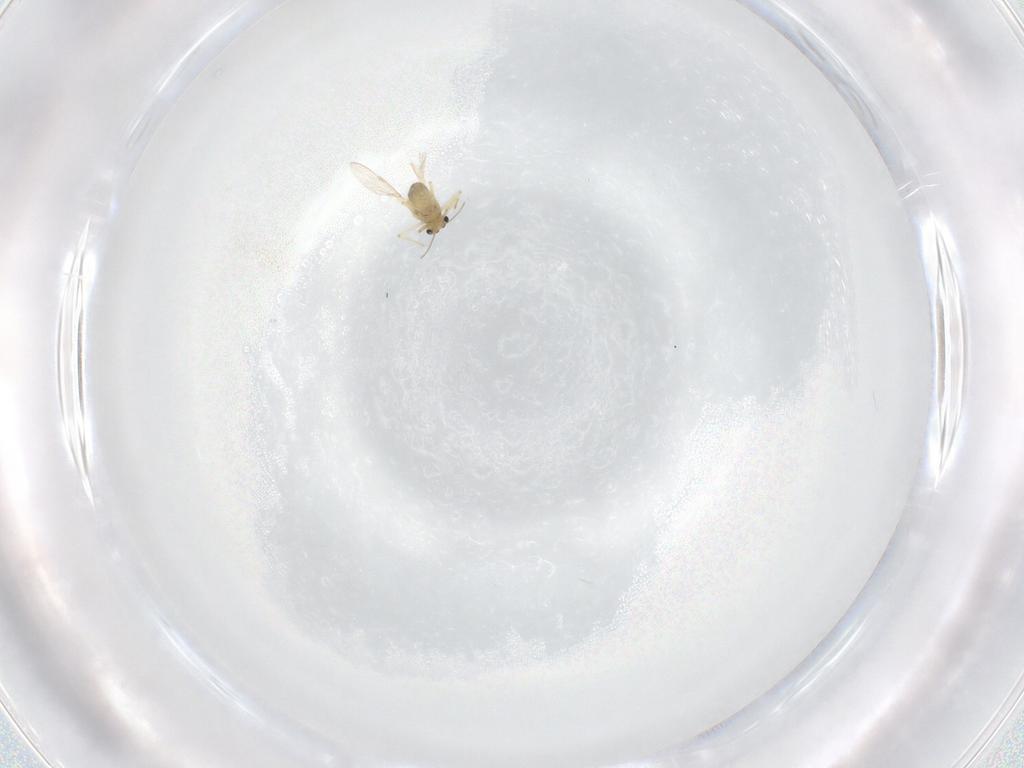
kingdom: Animalia
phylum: Arthropoda
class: Insecta
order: Diptera
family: Chironomidae
